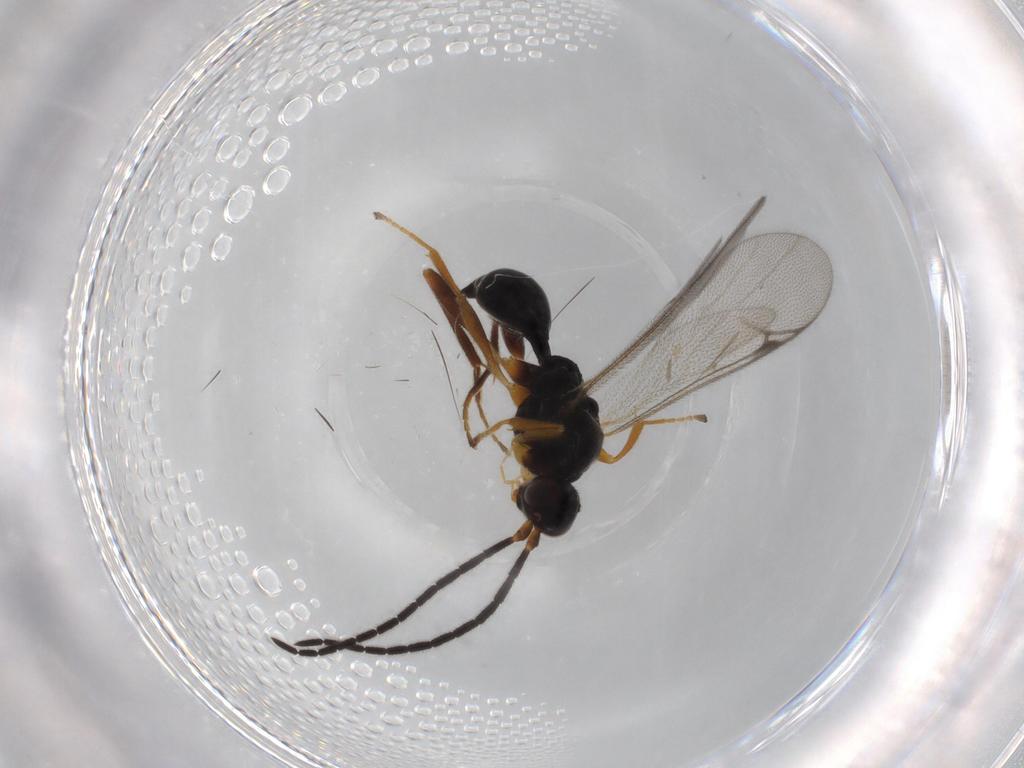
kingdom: Animalia
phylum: Arthropoda
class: Insecta
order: Hymenoptera
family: Proctotrupidae
